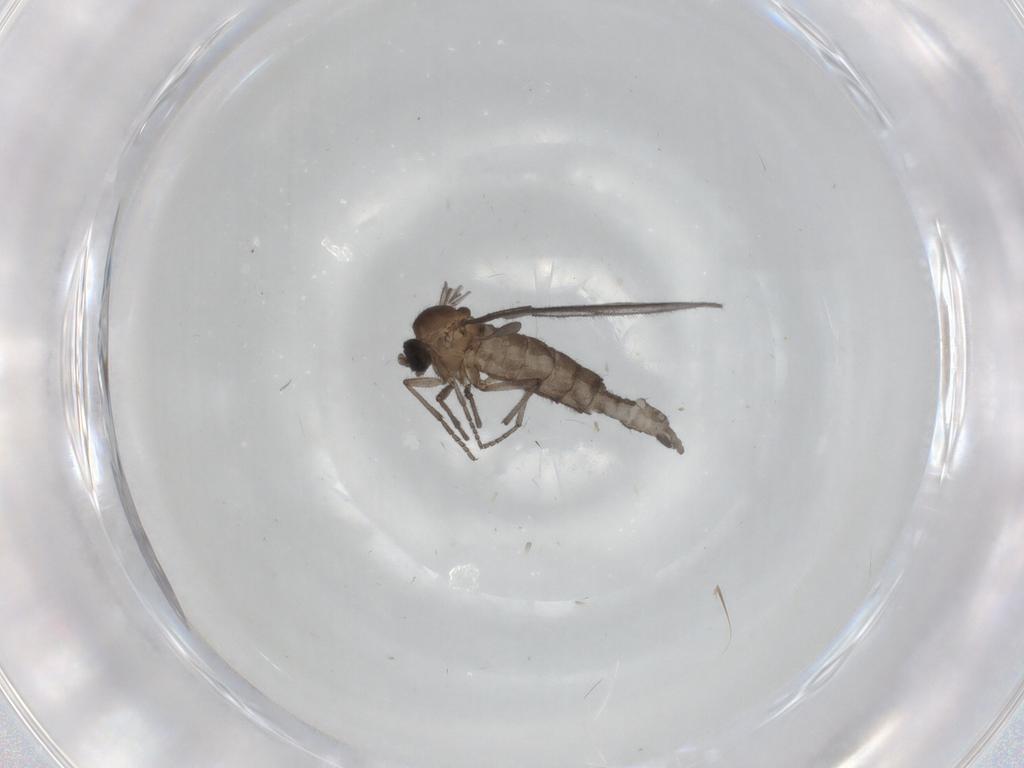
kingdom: Animalia
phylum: Arthropoda
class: Insecta
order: Diptera
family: Sciaridae
